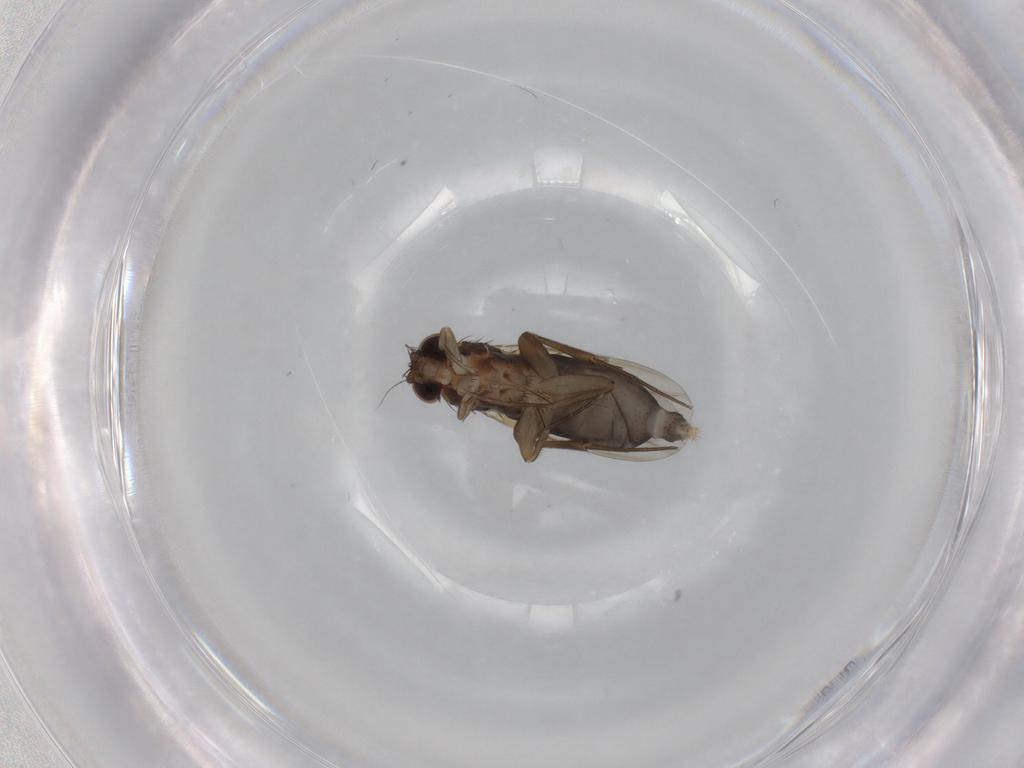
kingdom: Animalia
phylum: Arthropoda
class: Insecta
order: Diptera
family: Phoridae
